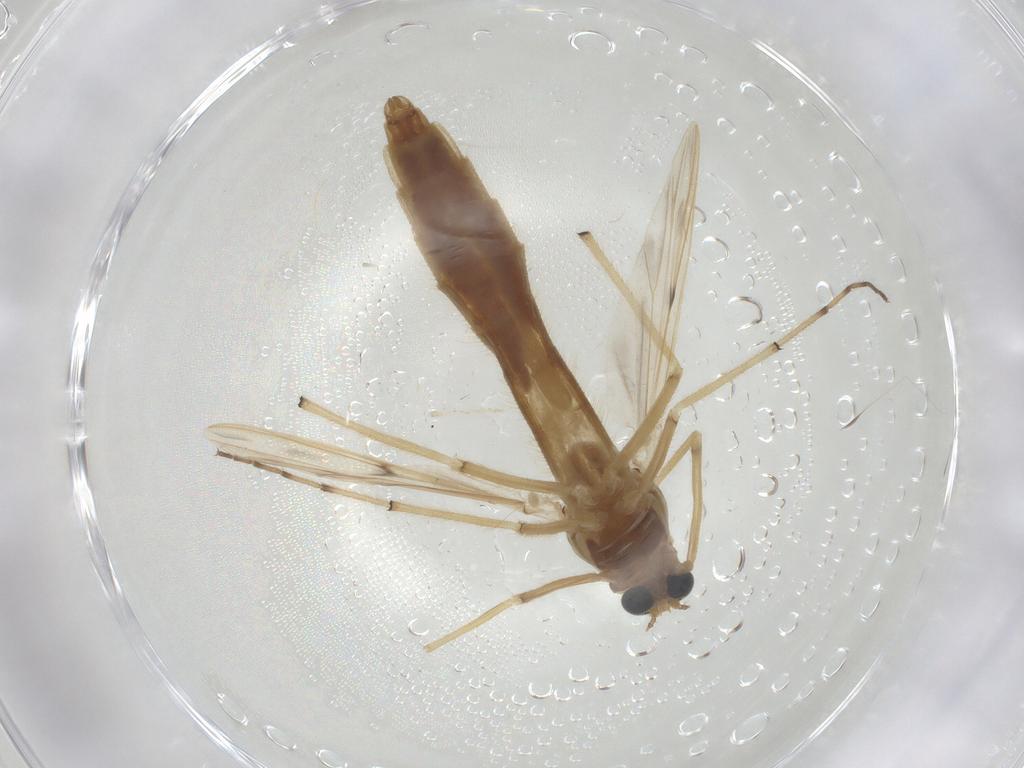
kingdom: Animalia
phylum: Arthropoda
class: Insecta
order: Diptera
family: Chironomidae
